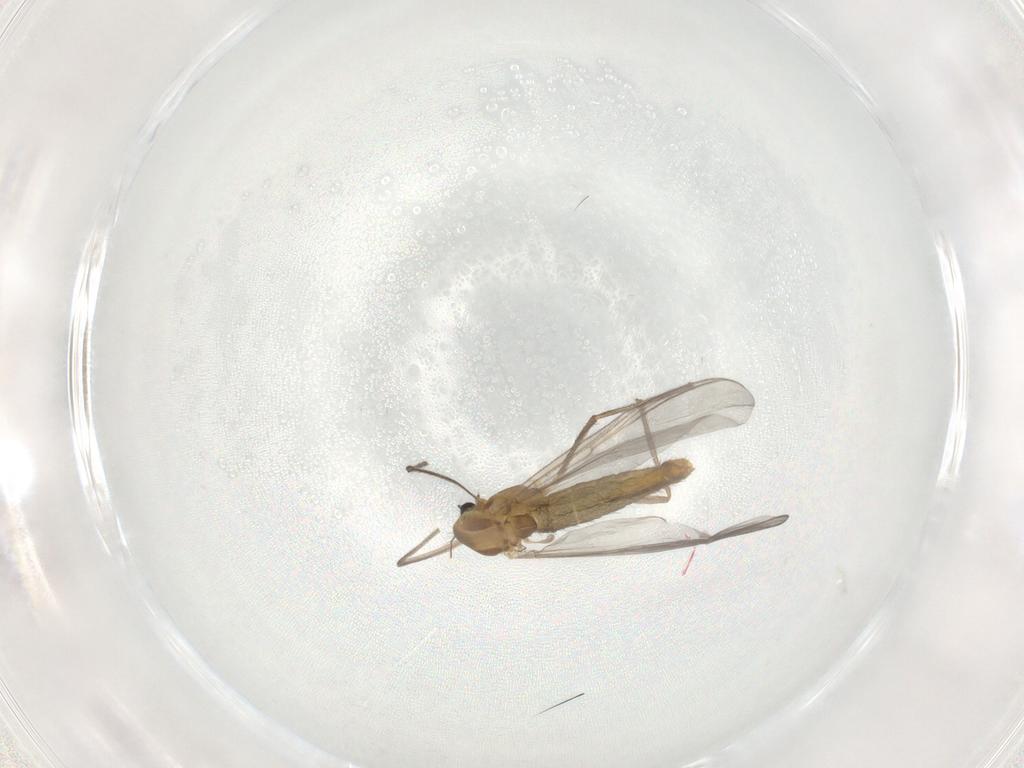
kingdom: Animalia
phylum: Arthropoda
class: Insecta
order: Diptera
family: Chironomidae
